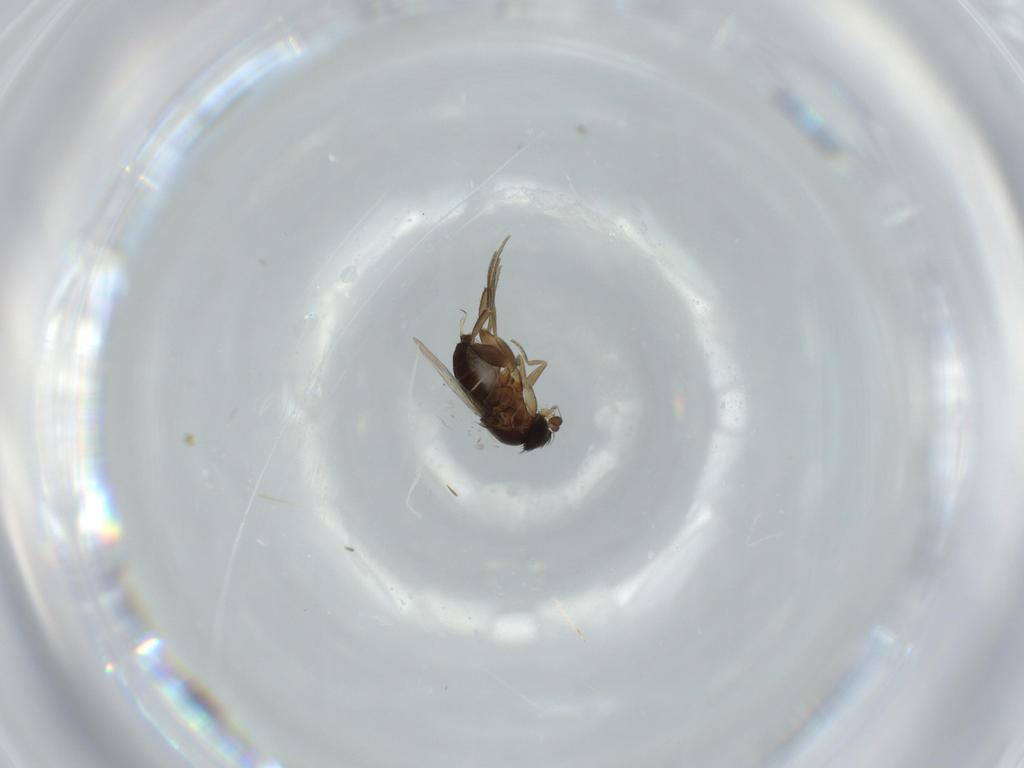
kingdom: Animalia
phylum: Arthropoda
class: Insecta
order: Diptera
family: Phoridae
